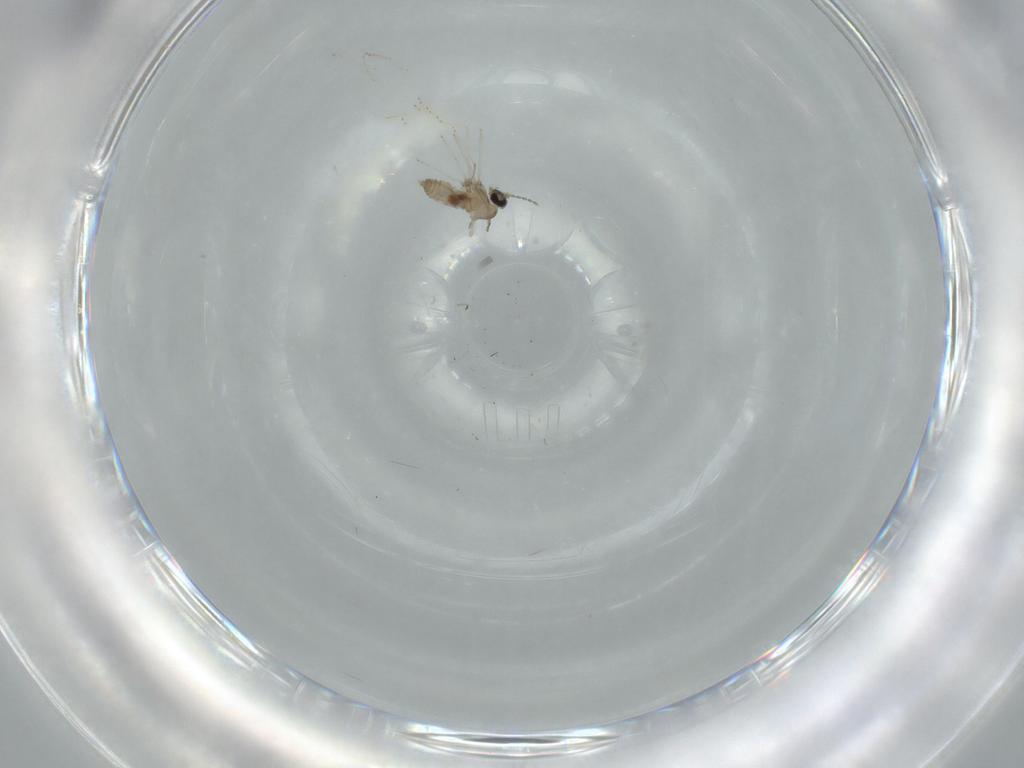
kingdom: Animalia
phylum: Arthropoda
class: Insecta
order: Diptera
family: Cecidomyiidae
